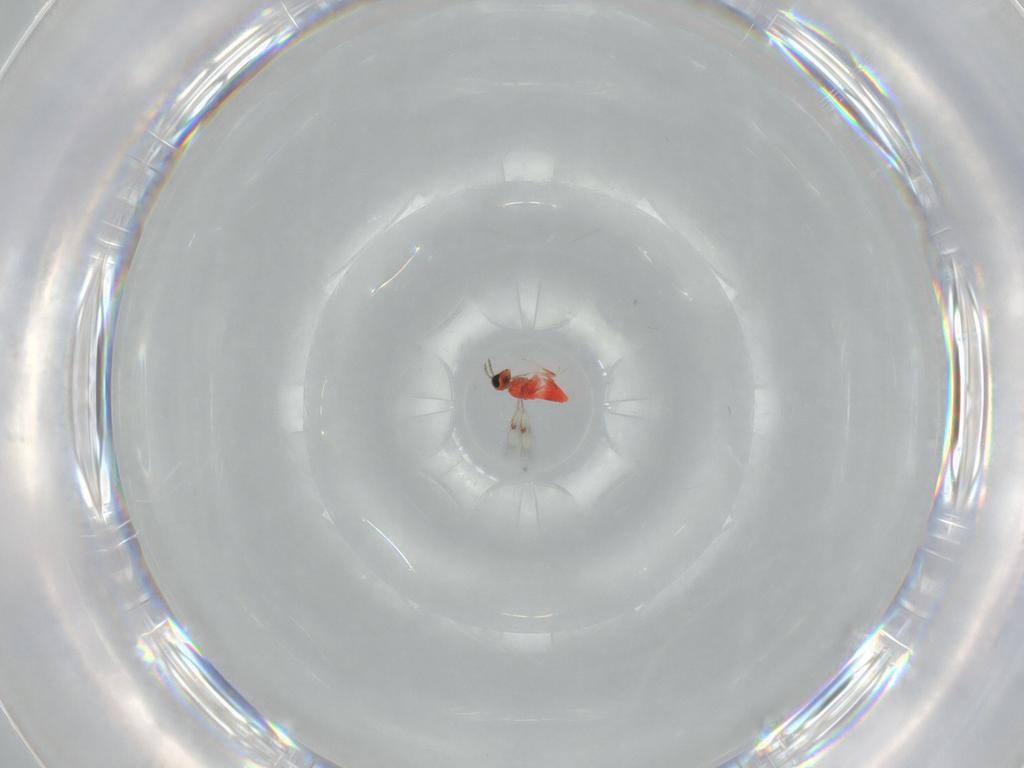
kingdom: Animalia
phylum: Arthropoda
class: Insecta
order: Hymenoptera
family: Trichogrammatidae
